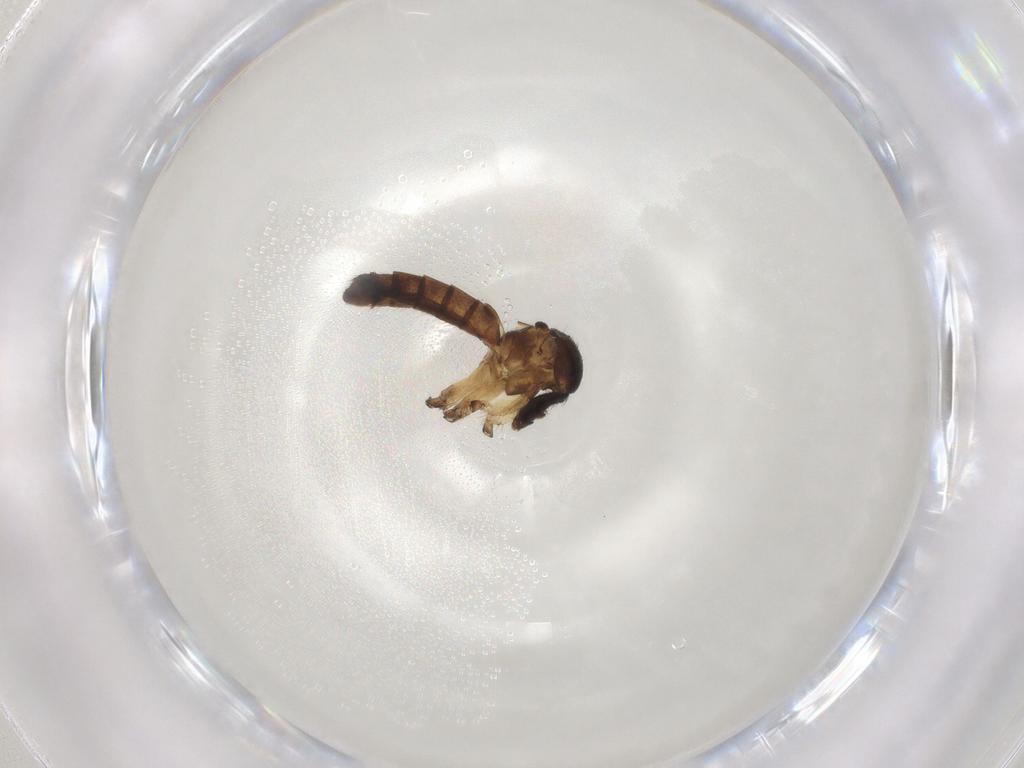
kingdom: Animalia
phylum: Arthropoda
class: Insecta
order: Diptera
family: Mycetophilidae
